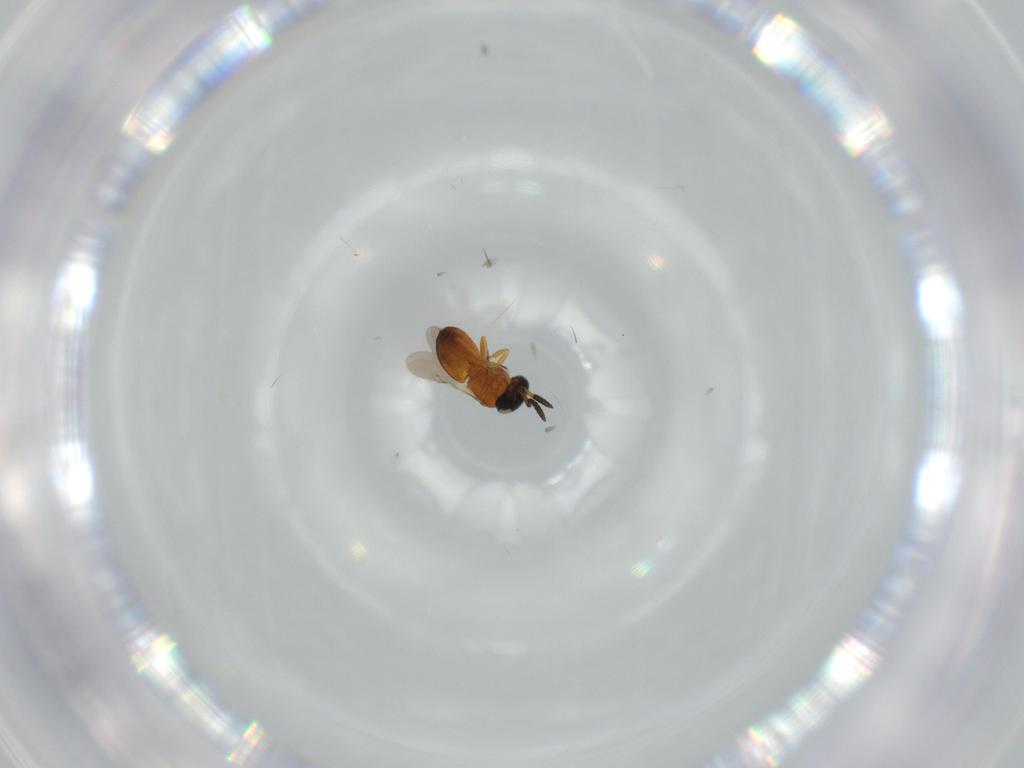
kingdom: Animalia
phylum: Arthropoda
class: Insecta
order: Hymenoptera
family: Scelionidae
